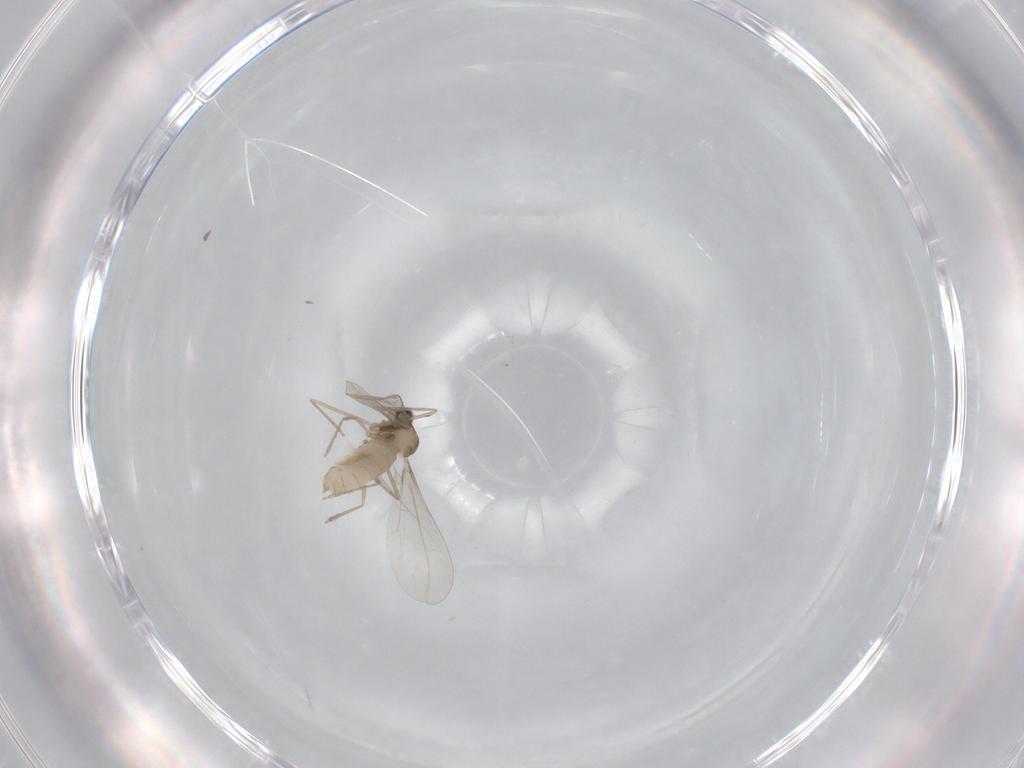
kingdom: Animalia
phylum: Arthropoda
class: Insecta
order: Diptera
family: Cecidomyiidae
